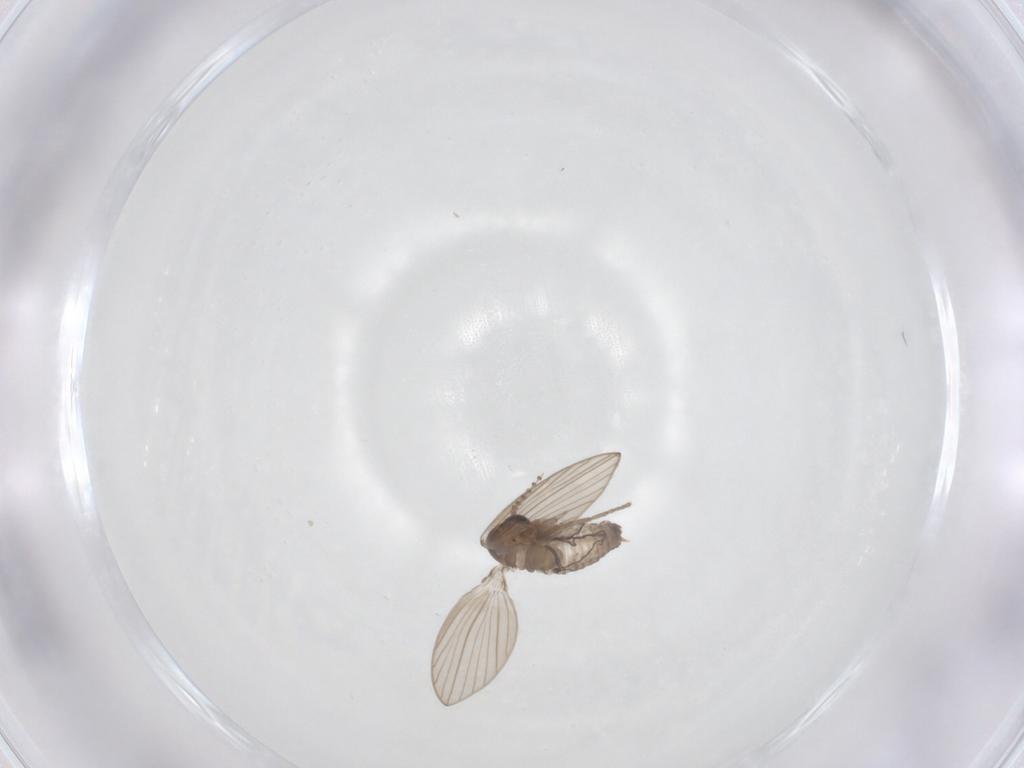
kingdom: Animalia
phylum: Arthropoda
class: Insecta
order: Diptera
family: Psychodidae
